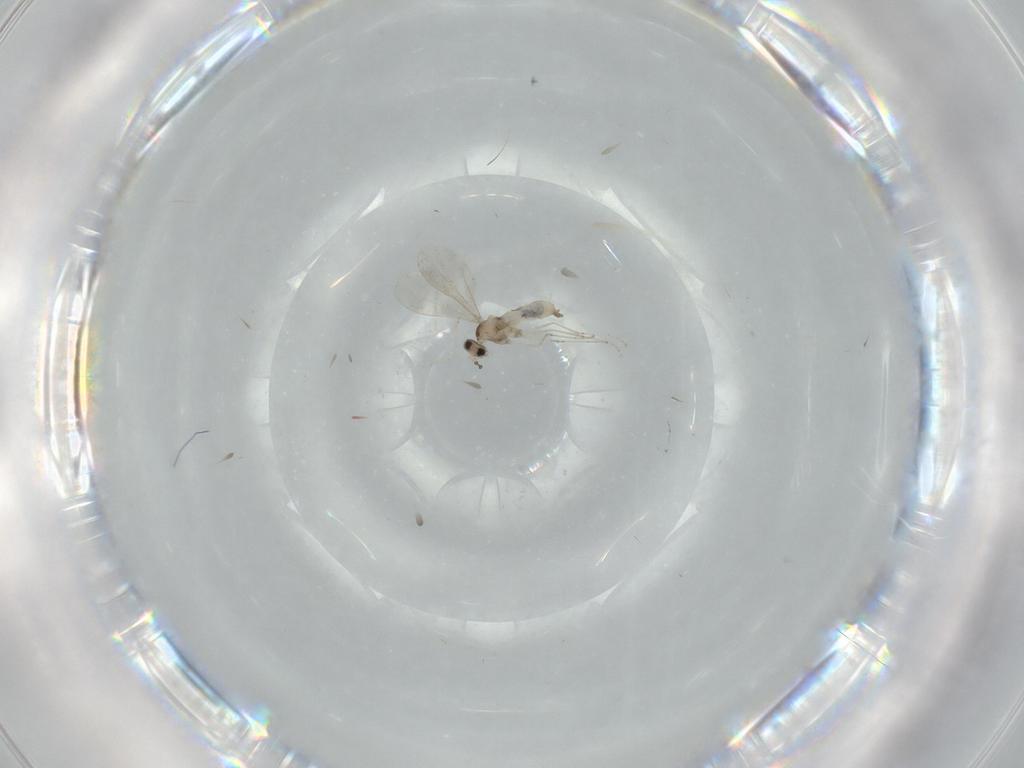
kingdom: Animalia
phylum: Arthropoda
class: Insecta
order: Diptera
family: Cecidomyiidae
